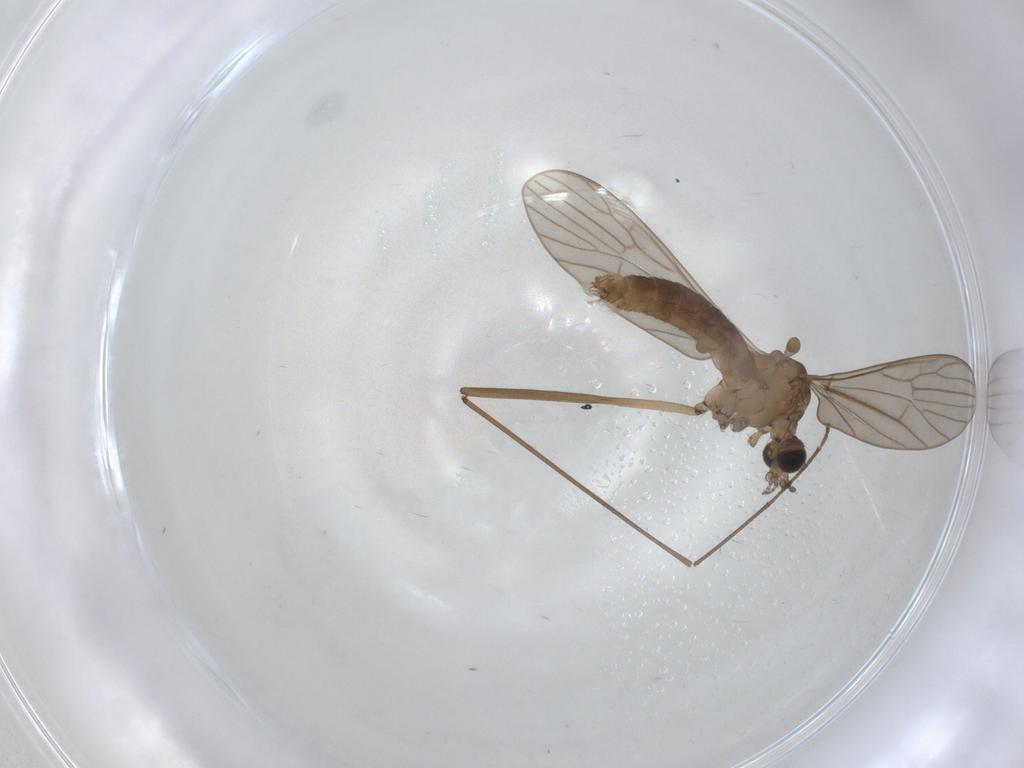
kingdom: Animalia
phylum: Arthropoda
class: Insecta
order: Diptera
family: Limoniidae
